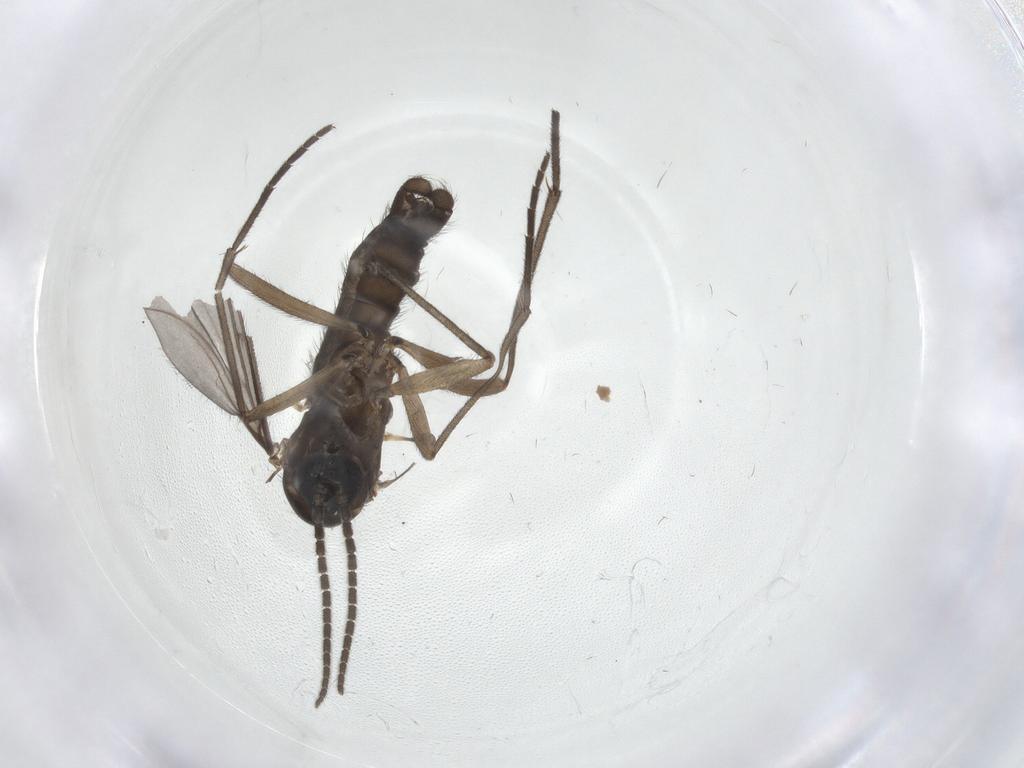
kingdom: Animalia
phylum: Arthropoda
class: Insecta
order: Diptera
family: Sciaridae
